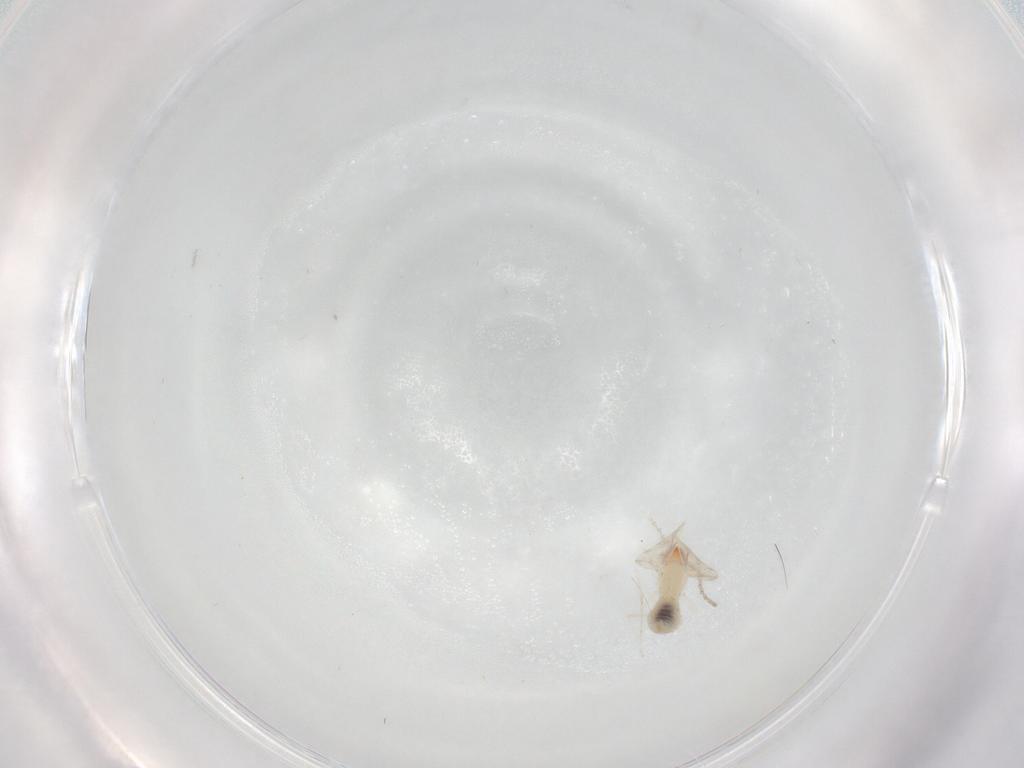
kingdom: Animalia
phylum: Arthropoda
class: Insecta
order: Diptera
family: Cecidomyiidae
